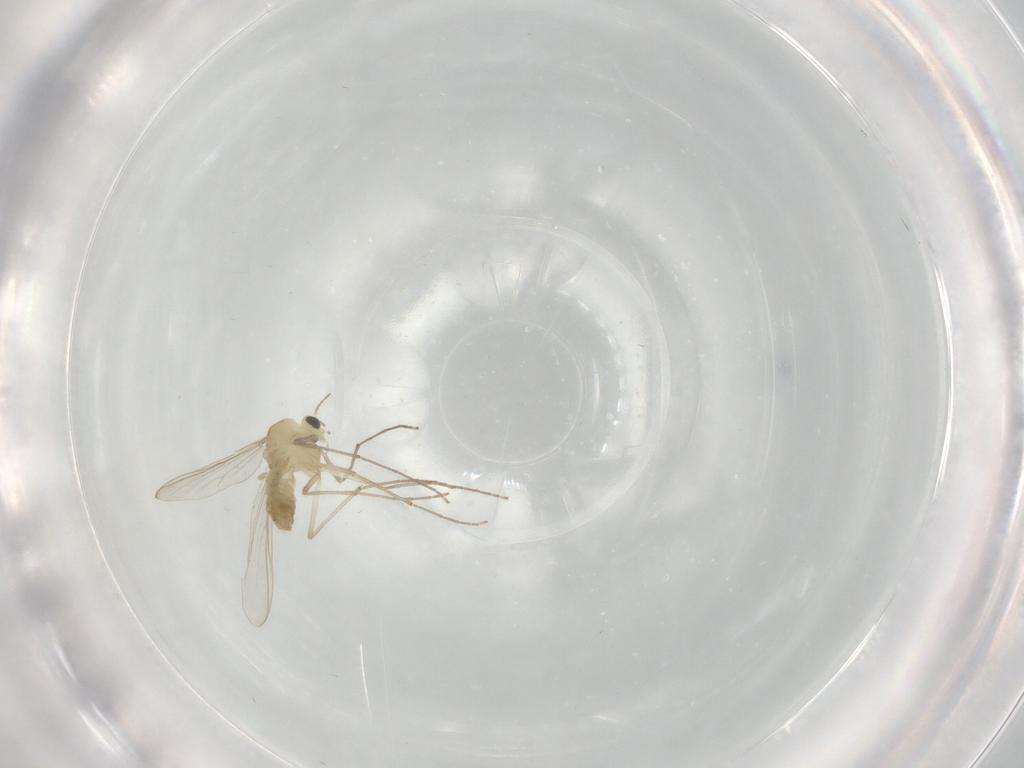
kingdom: Animalia
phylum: Arthropoda
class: Insecta
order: Diptera
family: Chironomidae
